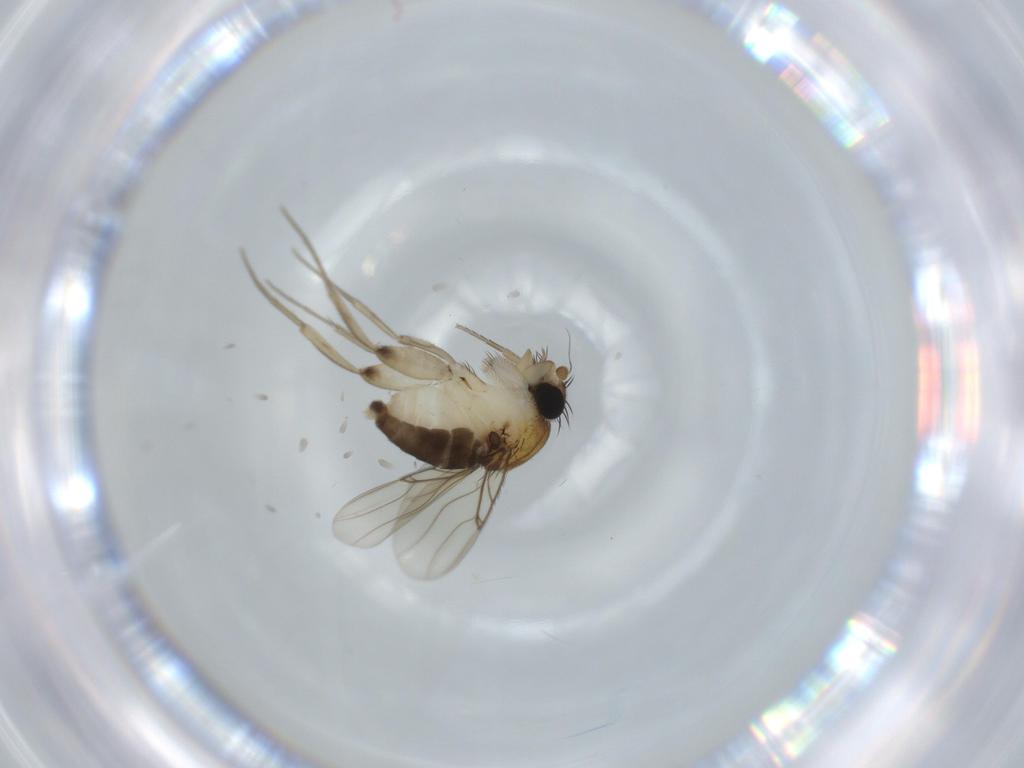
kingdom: Animalia
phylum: Arthropoda
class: Insecta
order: Diptera
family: Phoridae
